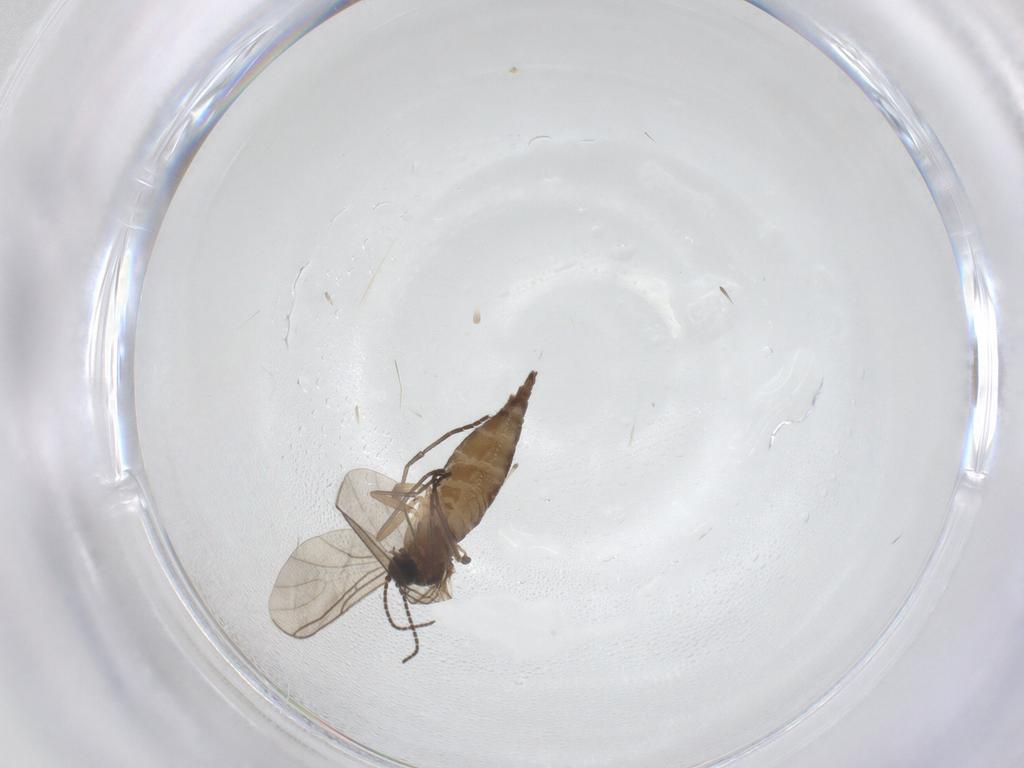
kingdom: Animalia
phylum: Arthropoda
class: Insecta
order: Diptera
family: Sciaridae
